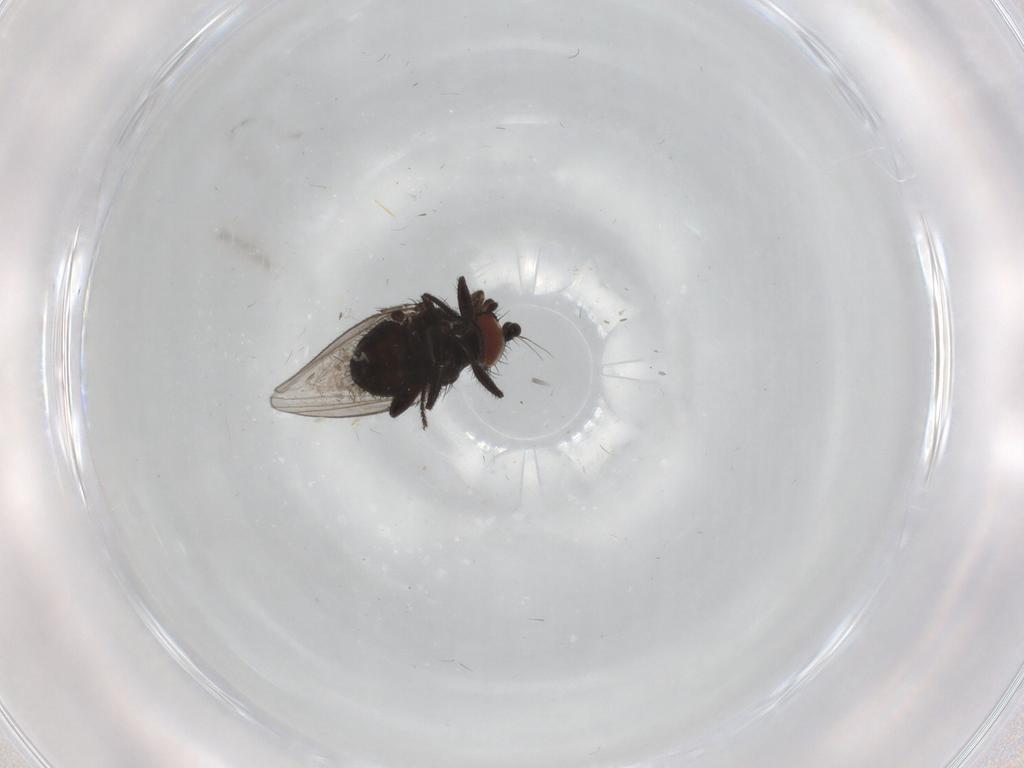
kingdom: Animalia
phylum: Arthropoda
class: Insecta
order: Diptera
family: Milichiidae
